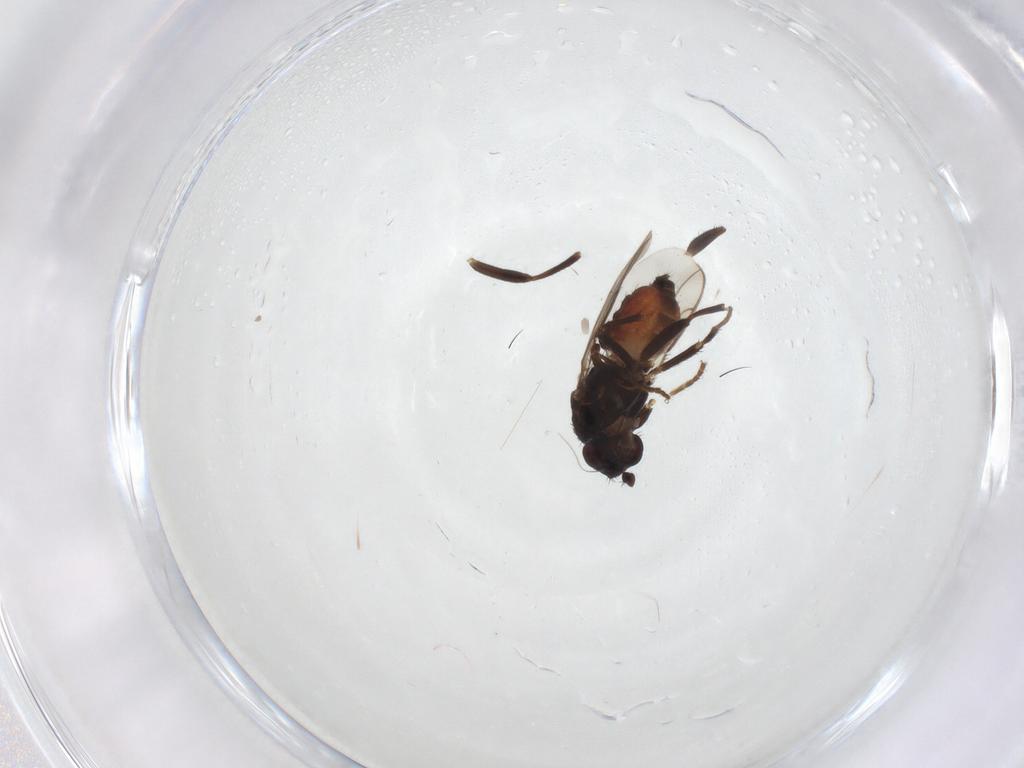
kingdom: Animalia
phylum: Arthropoda
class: Insecta
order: Diptera
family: Sphaeroceridae
